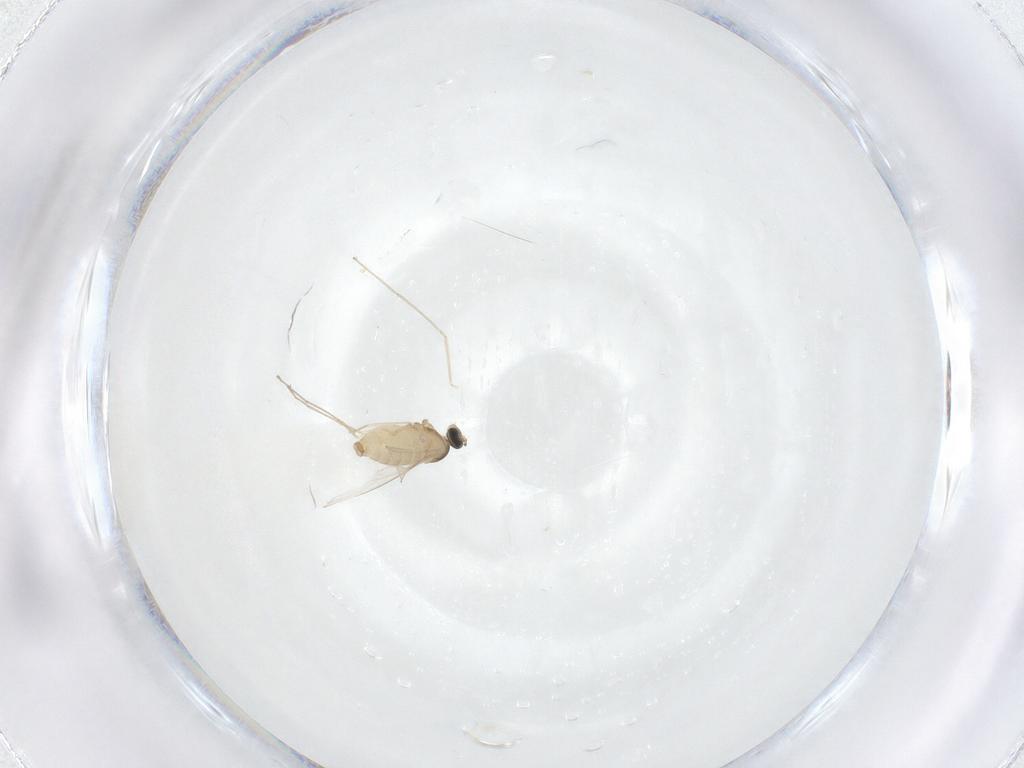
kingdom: Animalia
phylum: Arthropoda
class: Insecta
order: Diptera
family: Cecidomyiidae
